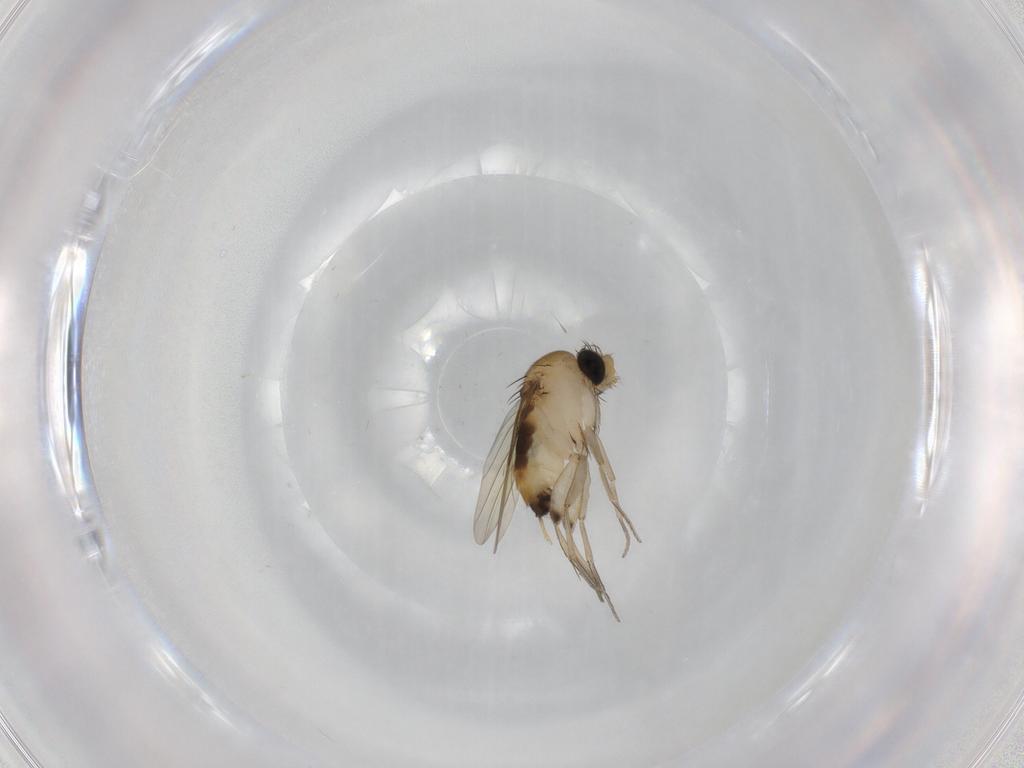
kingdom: Animalia
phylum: Arthropoda
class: Insecta
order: Diptera
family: Phoridae
